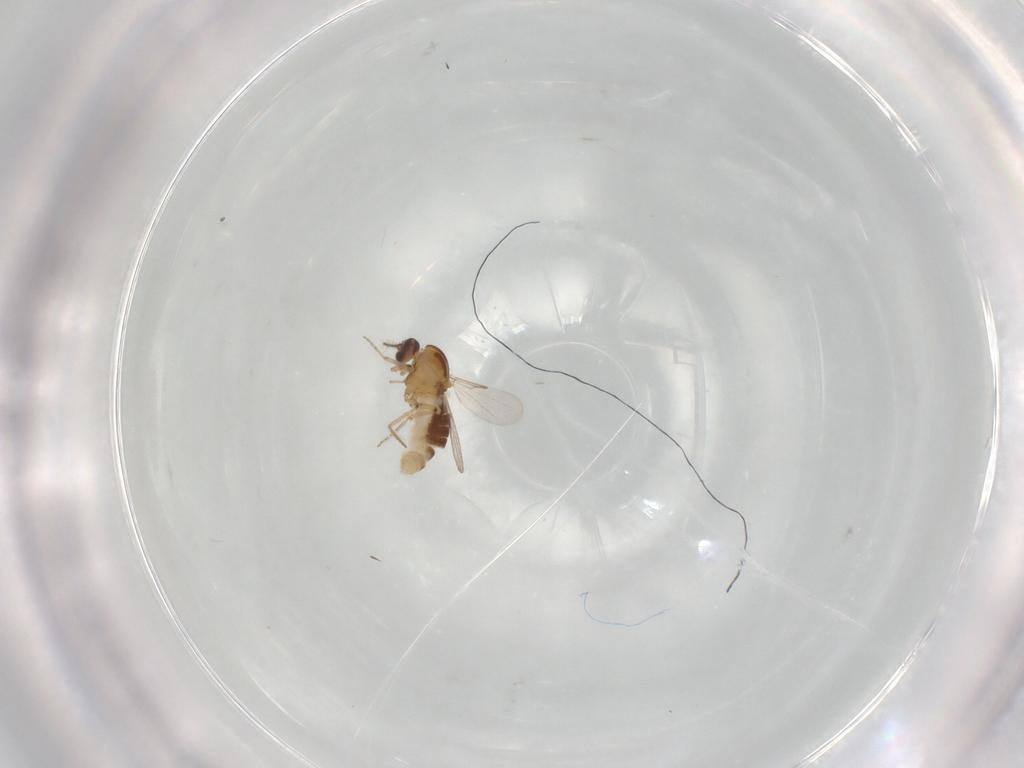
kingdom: Animalia
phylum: Arthropoda
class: Insecta
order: Diptera
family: Ceratopogonidae
